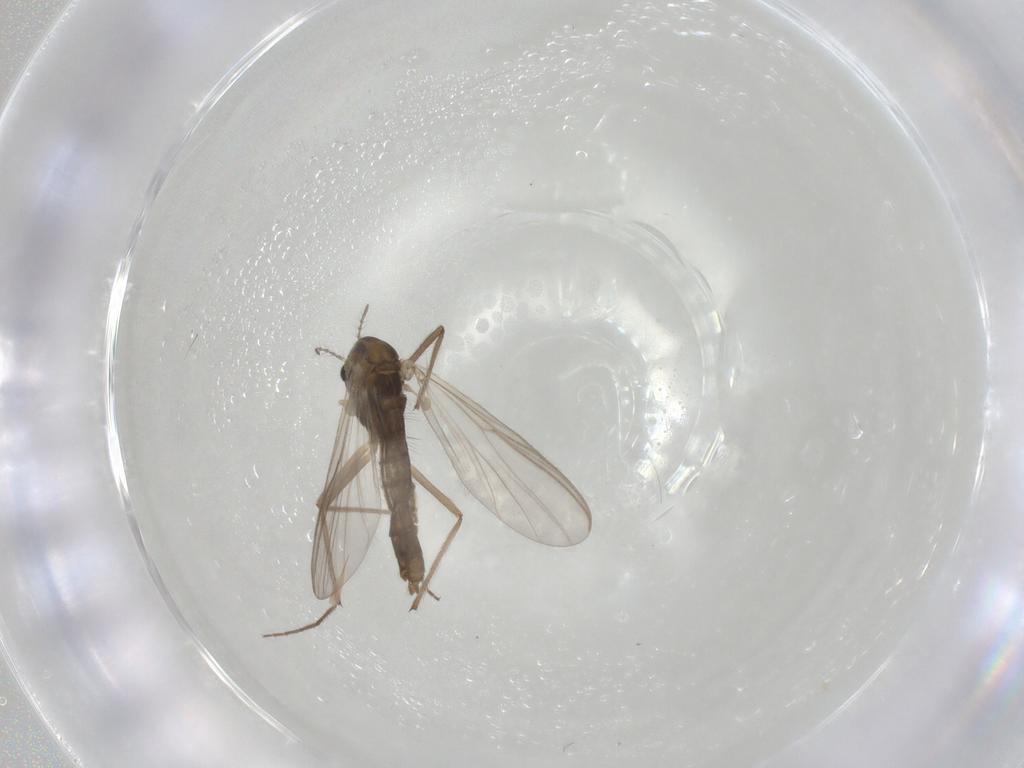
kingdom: Animalia
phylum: Arthropoda
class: Insecta
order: Diptera
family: Chironomidae
